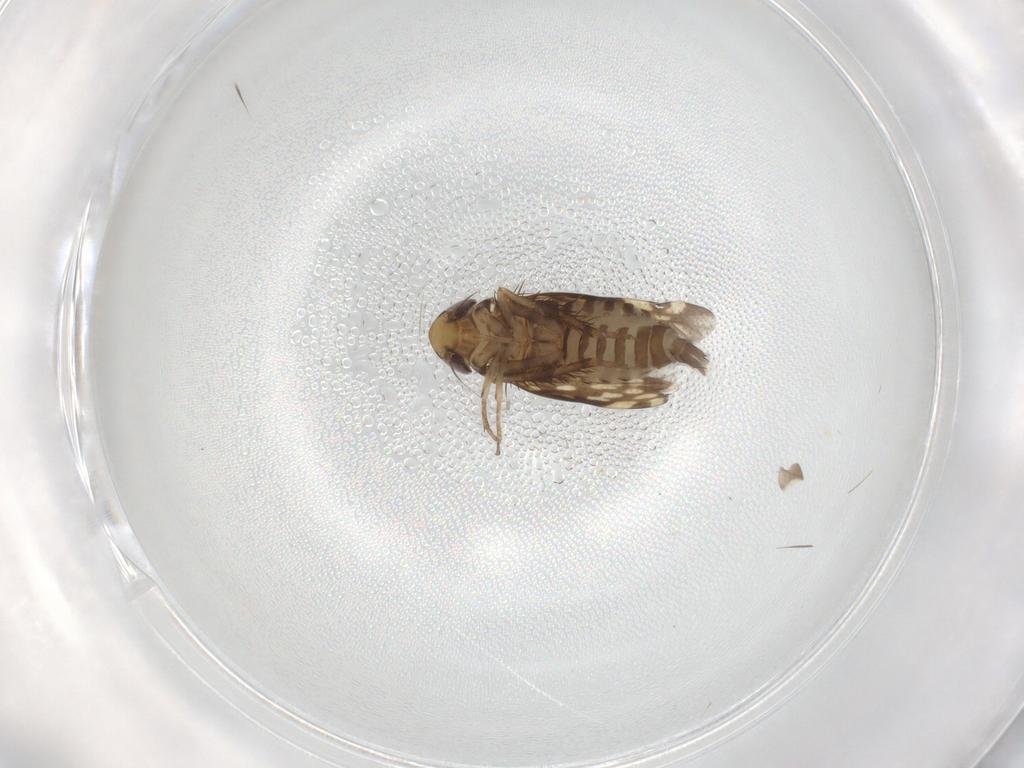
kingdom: Animalia
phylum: Arthropoda
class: Insecta
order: Hemiptera
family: Cicadellidae
